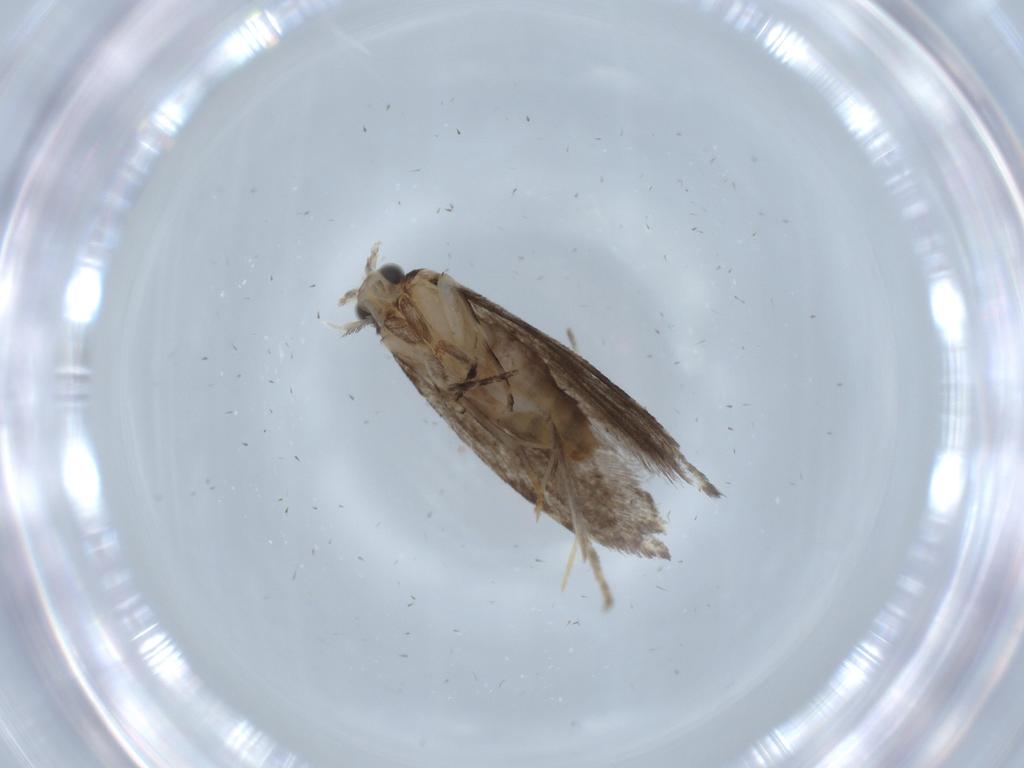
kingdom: Animalia
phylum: Arthropoda
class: Insecta
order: Lepidoptera
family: Tineidae
